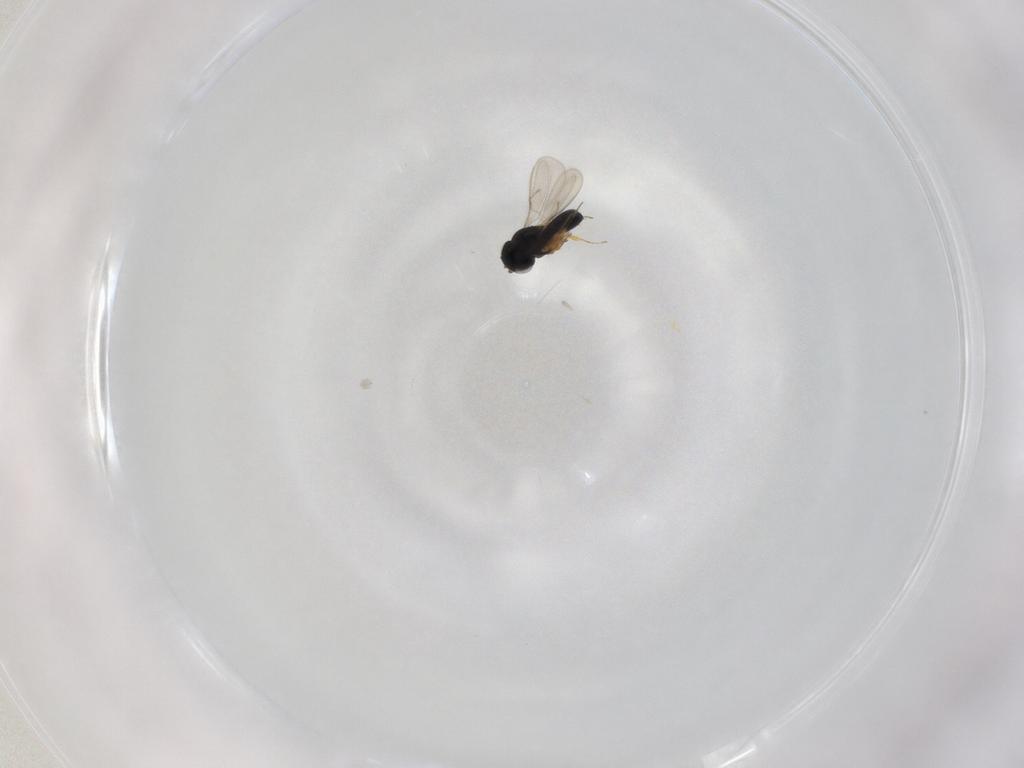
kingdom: Animalia
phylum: Arthropoda
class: Insecta
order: Hymenoptera
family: Scelionidae
